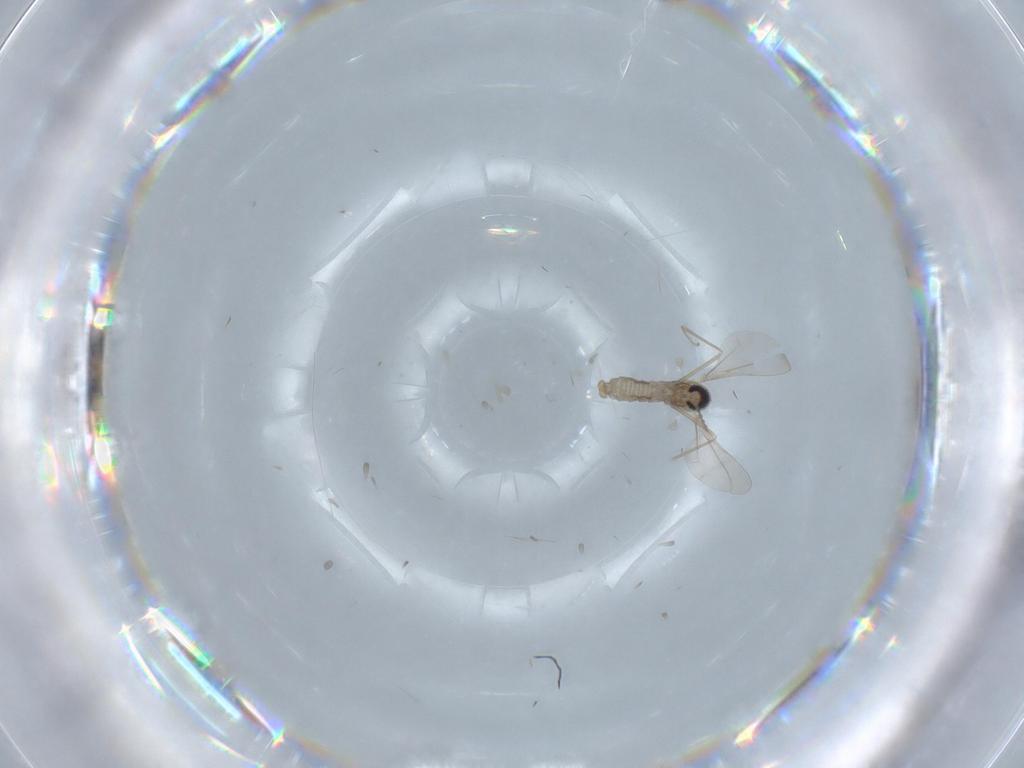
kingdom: Animalia
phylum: Arthropoda
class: Insecta
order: Diptera
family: Cecidomyiidae
